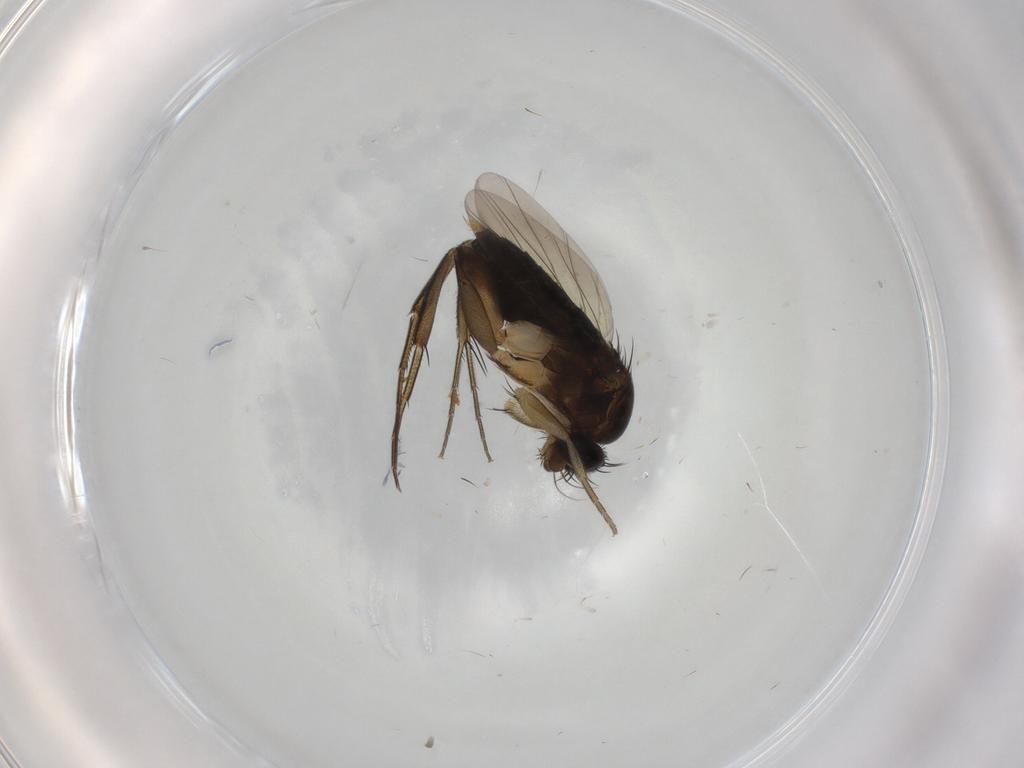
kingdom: Animalia
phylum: Arthropoda
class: Insecta
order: Diptera
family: Phoridae
